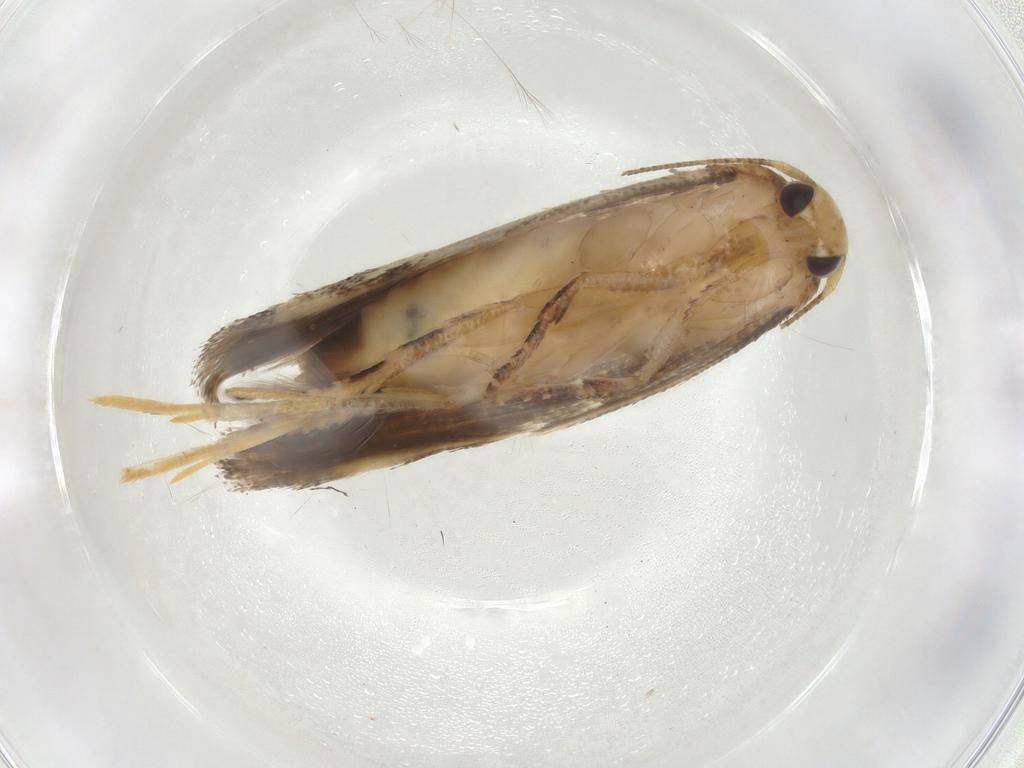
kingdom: Animalia
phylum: Arthropoda
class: Insecta
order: Lepidoptera
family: Momphidae
